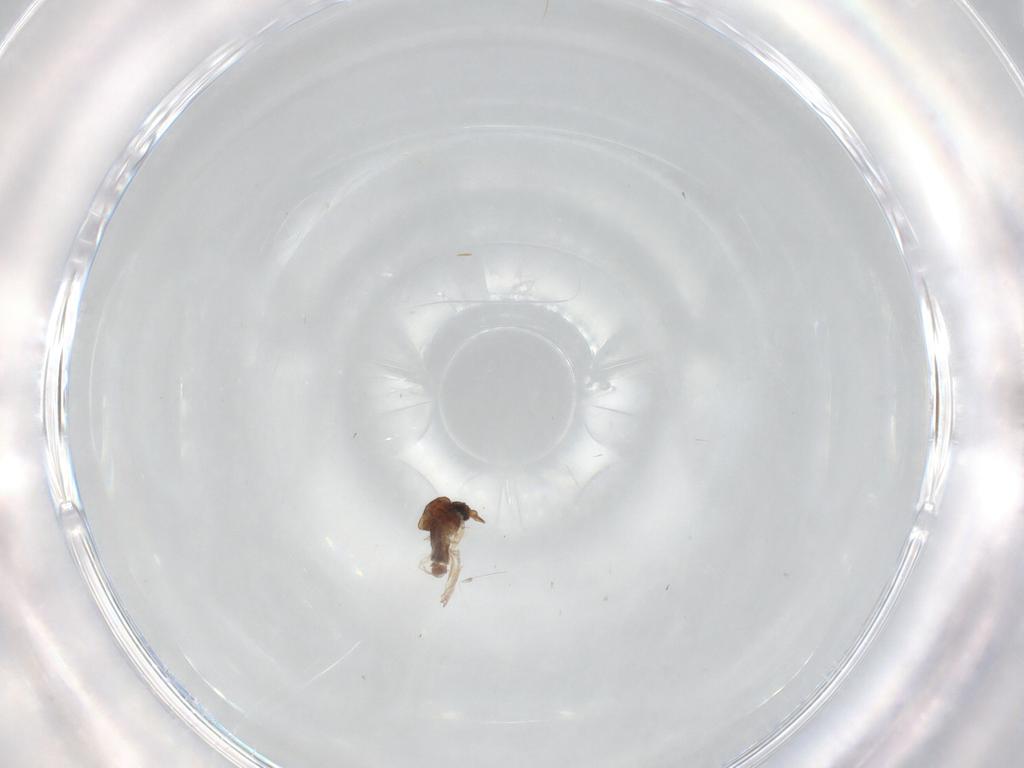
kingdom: Animalia
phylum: Arthropoda
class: Insecta
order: Diptera
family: Ceratopogonidae
